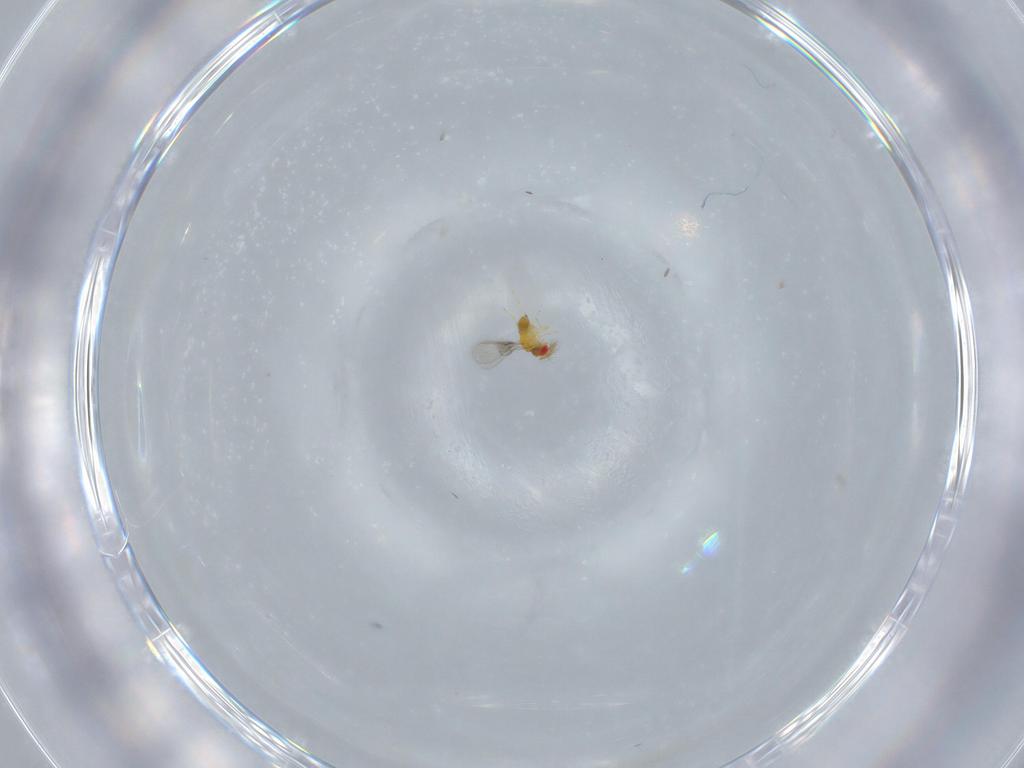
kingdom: Animalia
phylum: Arthropoda
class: Insecta
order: Hymenoptera
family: Trichogrammatidae
